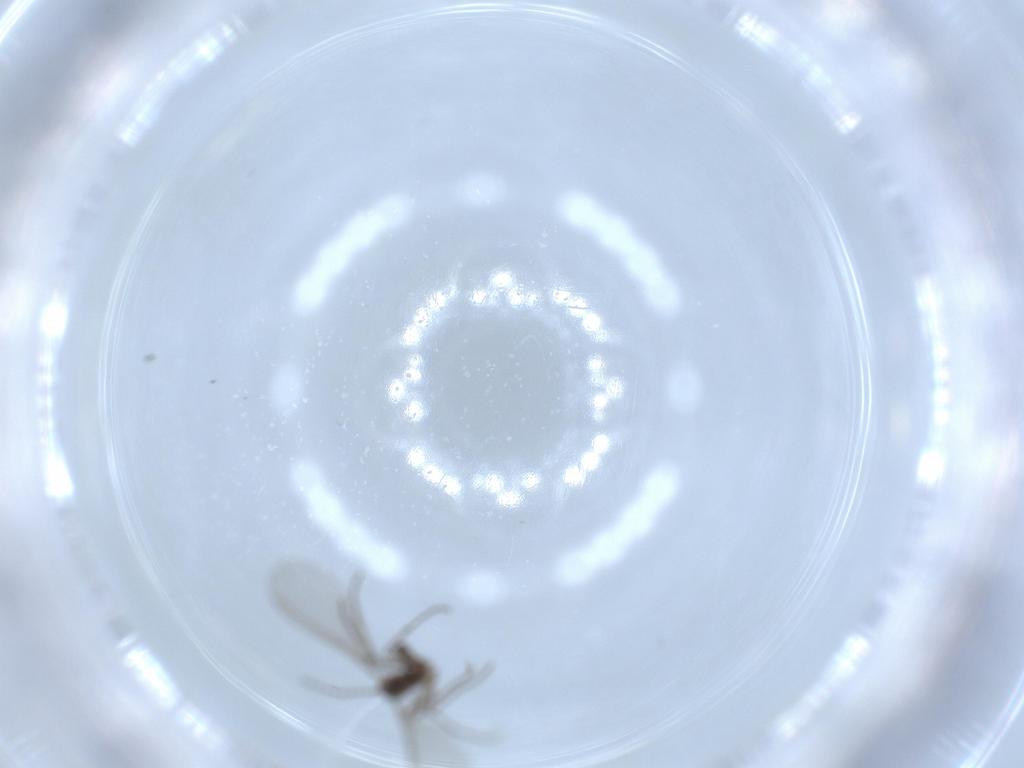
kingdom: Animalia
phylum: Arthropoda
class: Insecta
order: Diptera
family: Sciaridae
